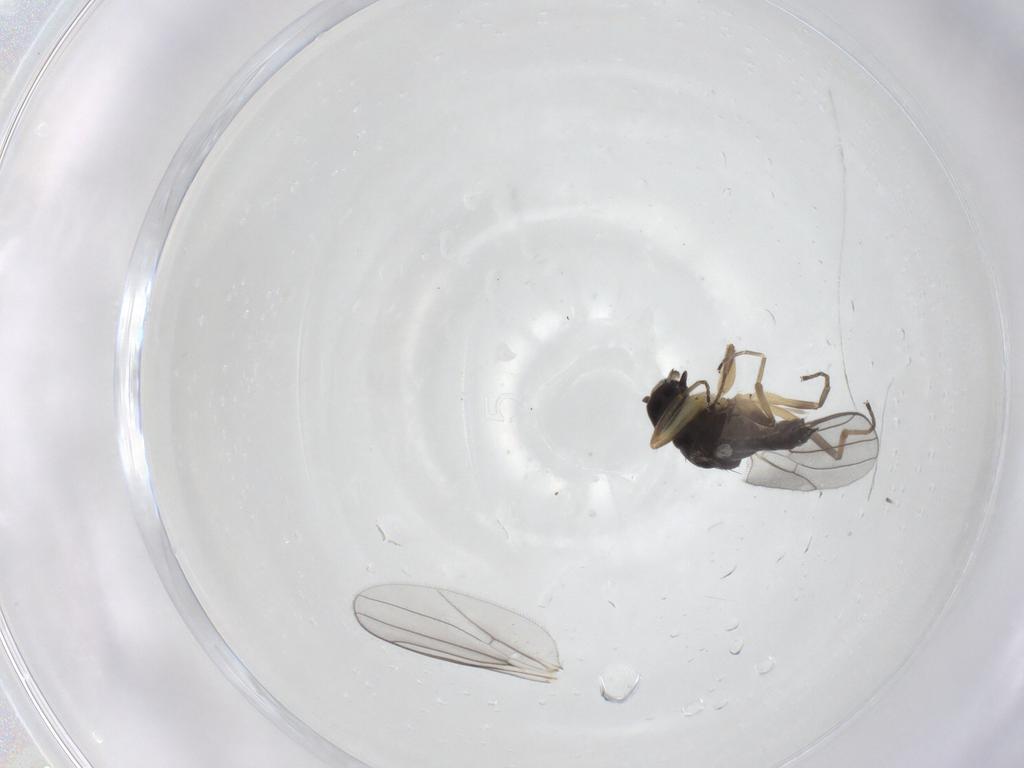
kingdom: Animalia
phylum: Arthropoda
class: Insecta
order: Diptera
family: Hybotidae
